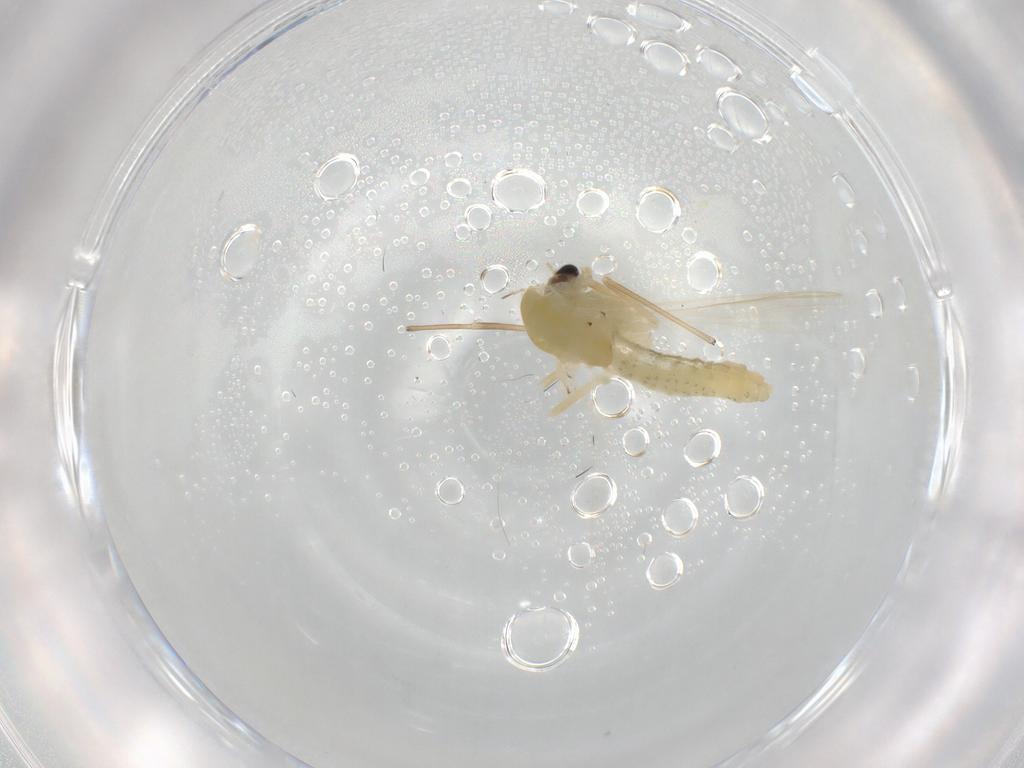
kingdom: Animalia
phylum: Arthropoda
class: Insecta
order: Diptera
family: Chironomidae
